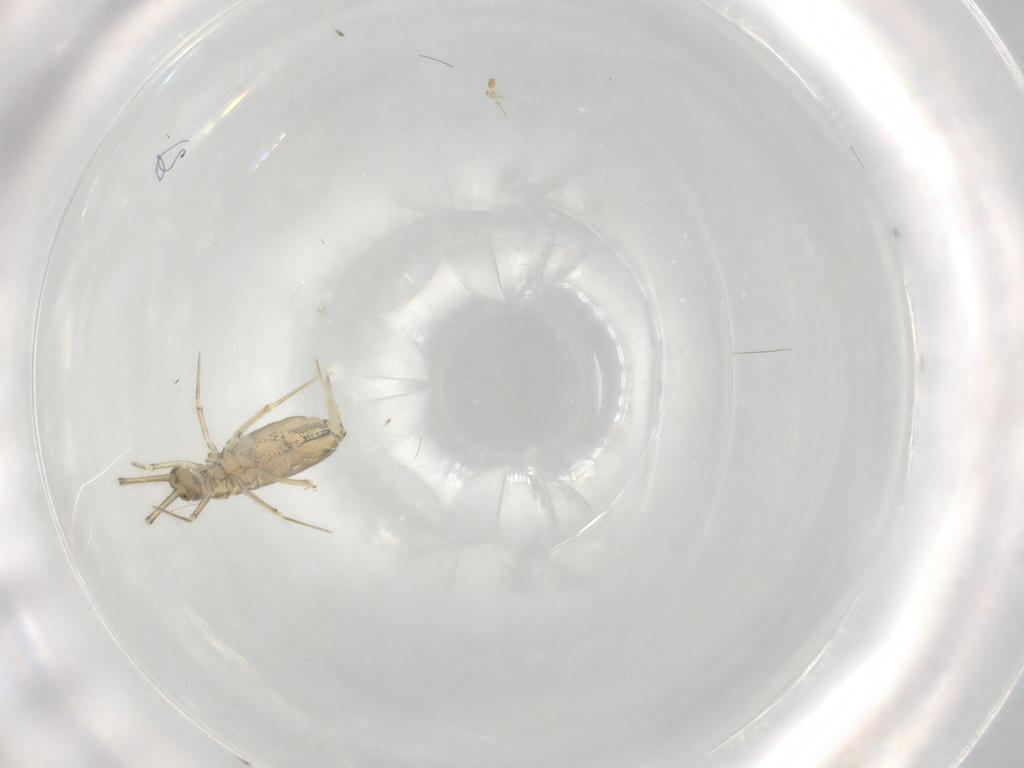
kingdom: Animalia
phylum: Arthropoda
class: Collembola
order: Entomobryomorpha
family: Paronellidae
